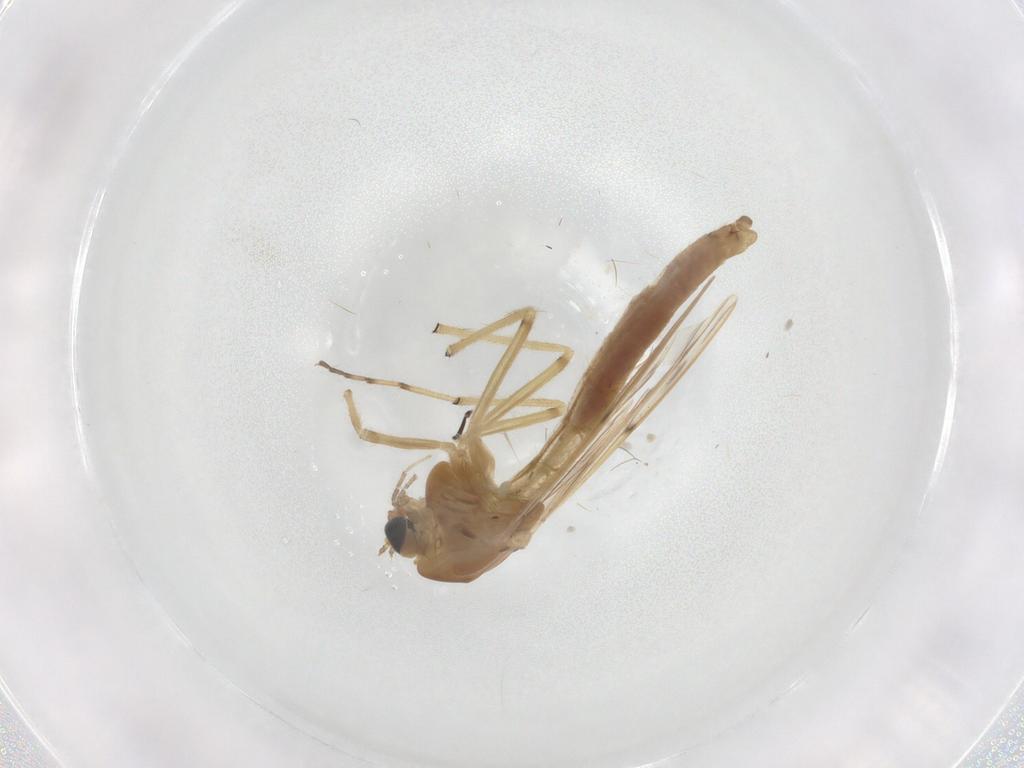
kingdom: Animalia
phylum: Arthropoda
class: Insecta
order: Diptera
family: Chironomidae
